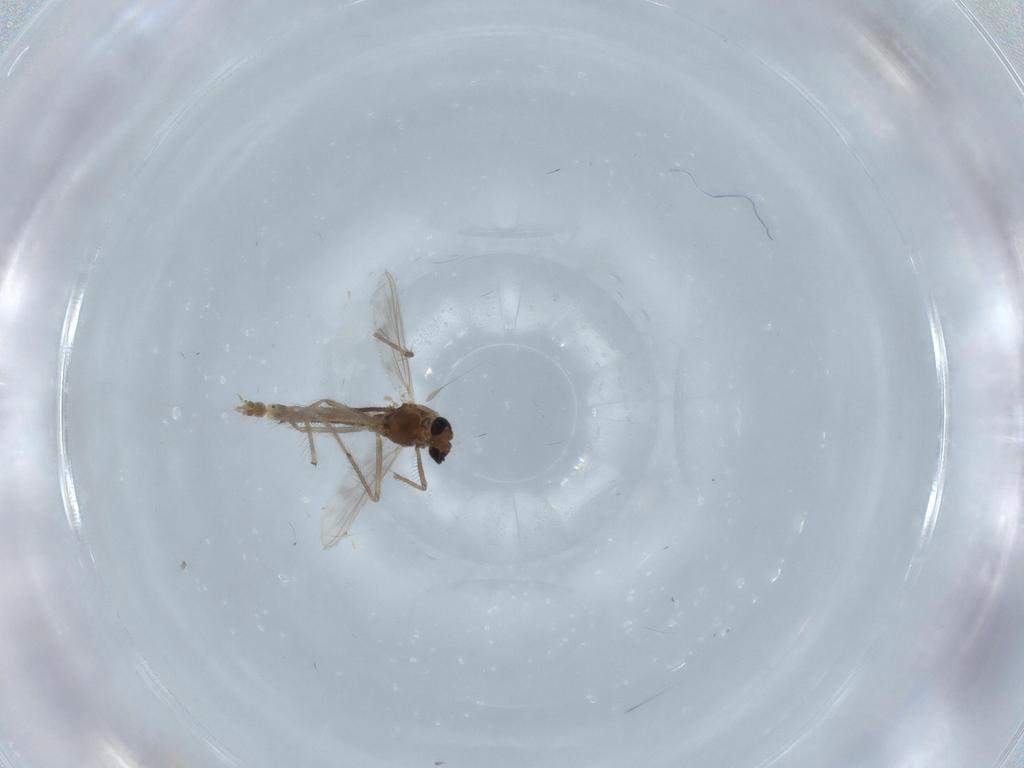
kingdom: Animalia
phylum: Arthropoda
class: Insecta
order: Diptera
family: Chironomidae
